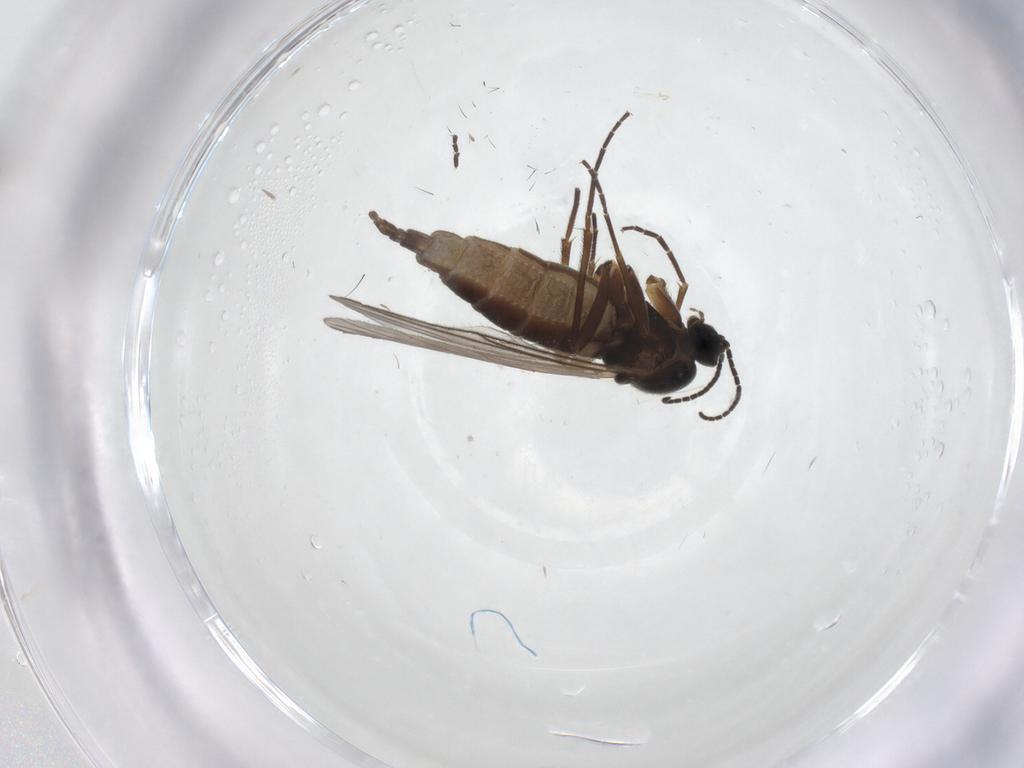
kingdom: Animalia
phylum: Arthropoda
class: Insecta
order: Diptera
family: Sciaridae
